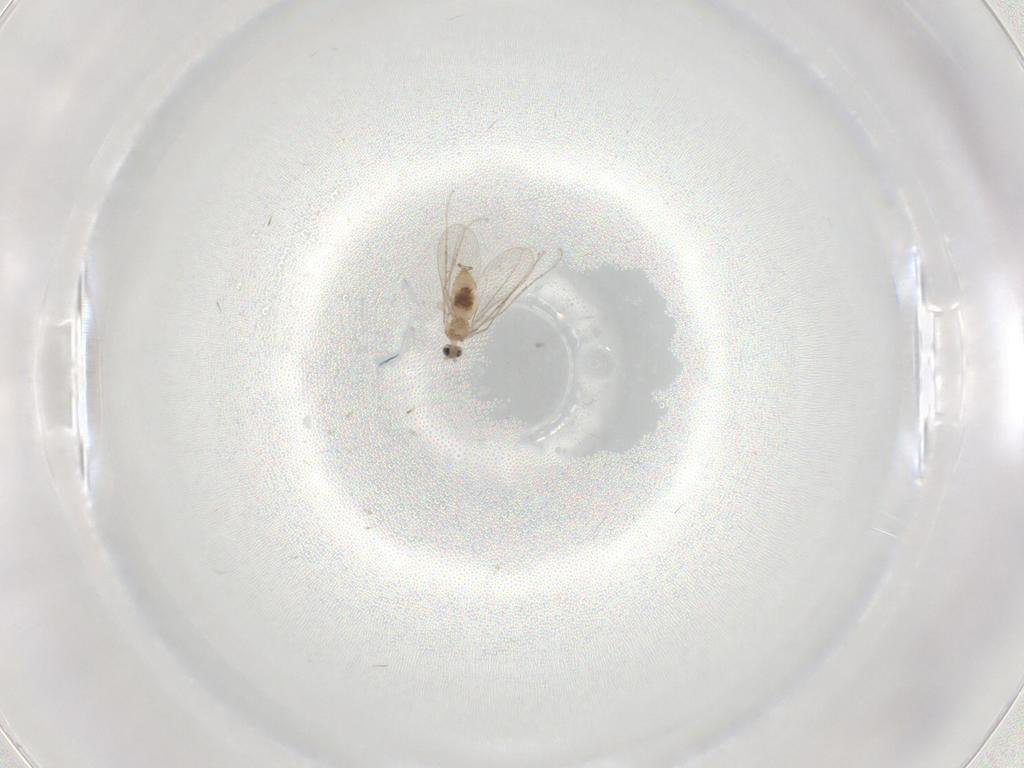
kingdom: Animalia
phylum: Arthropoda
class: Insecta
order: Diptera
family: Cecidomyiidae
